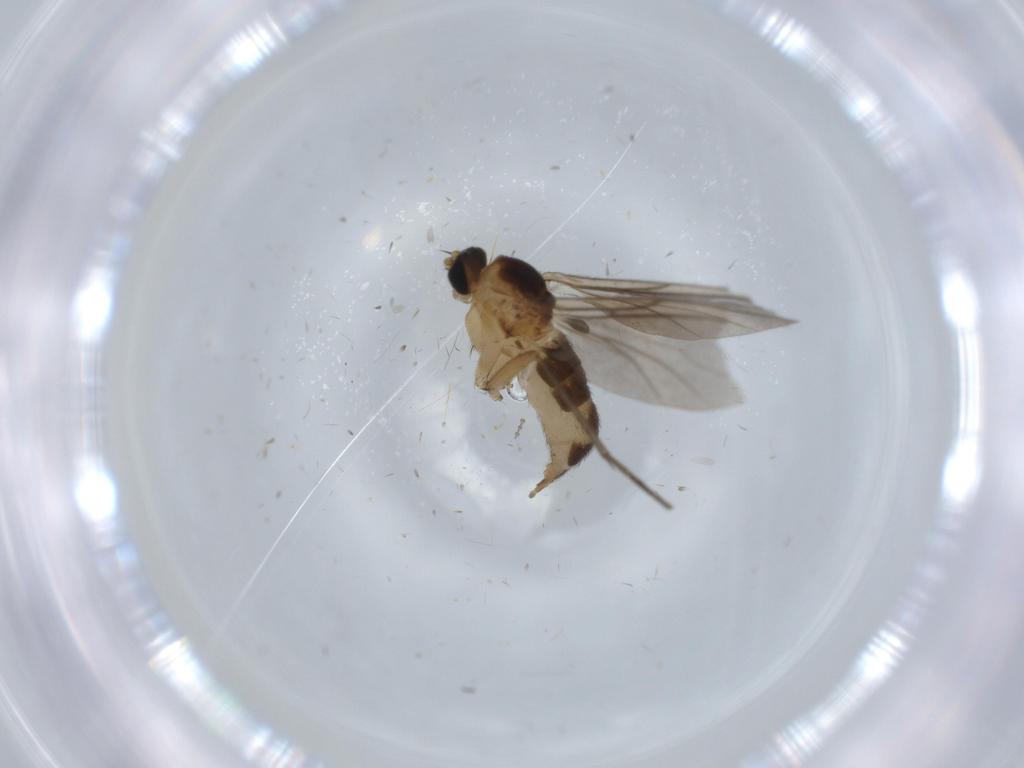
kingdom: Animalia
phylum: Arthropoda
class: Insecta
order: Diptera
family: Sciaridae
